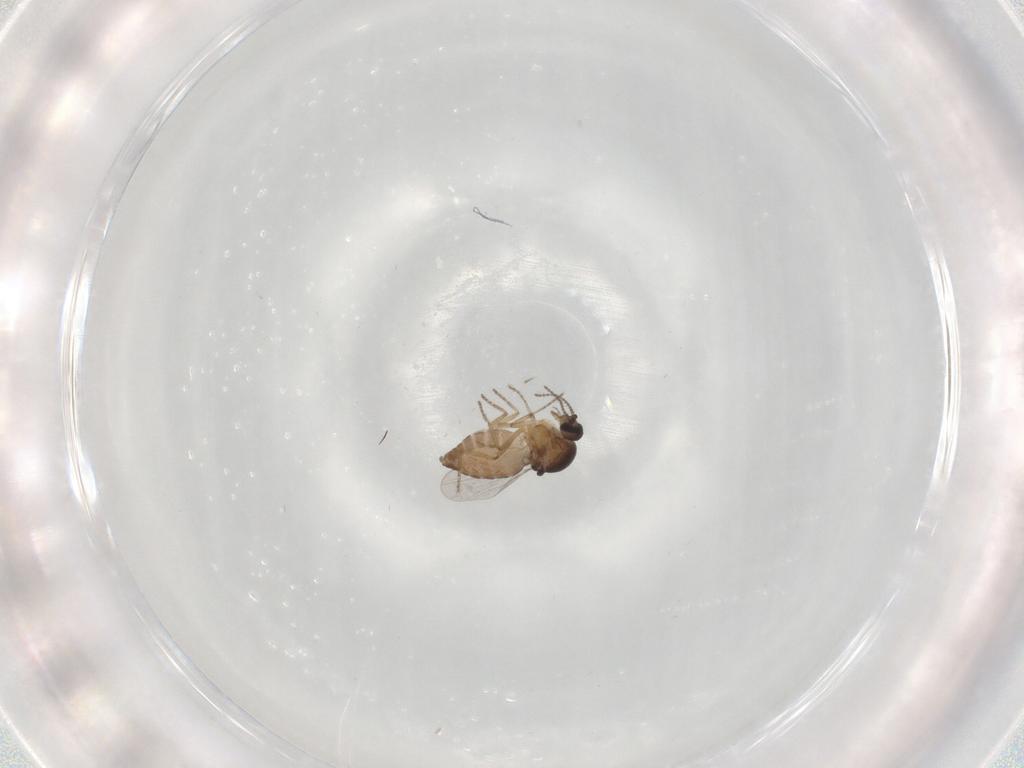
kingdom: Animalia
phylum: Arthropoda
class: Insecta
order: Diptera
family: Ceratopogonidae
